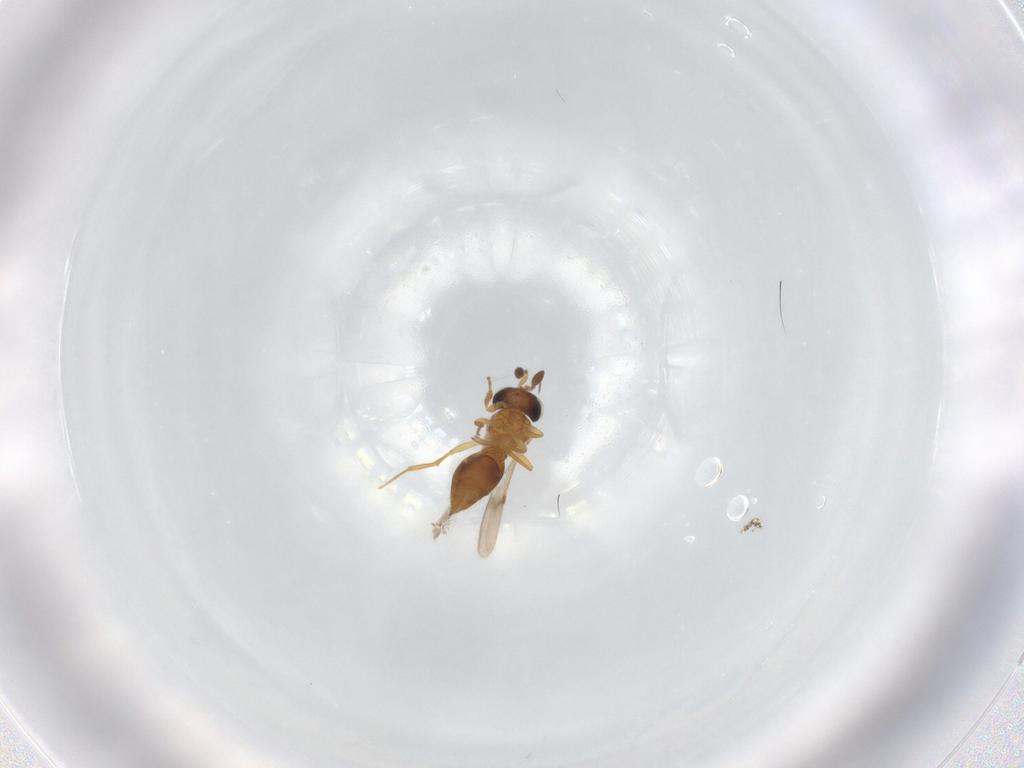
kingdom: Animalia
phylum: Arthropoda
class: Insecta
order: Hymenoptera
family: Scelionidae
